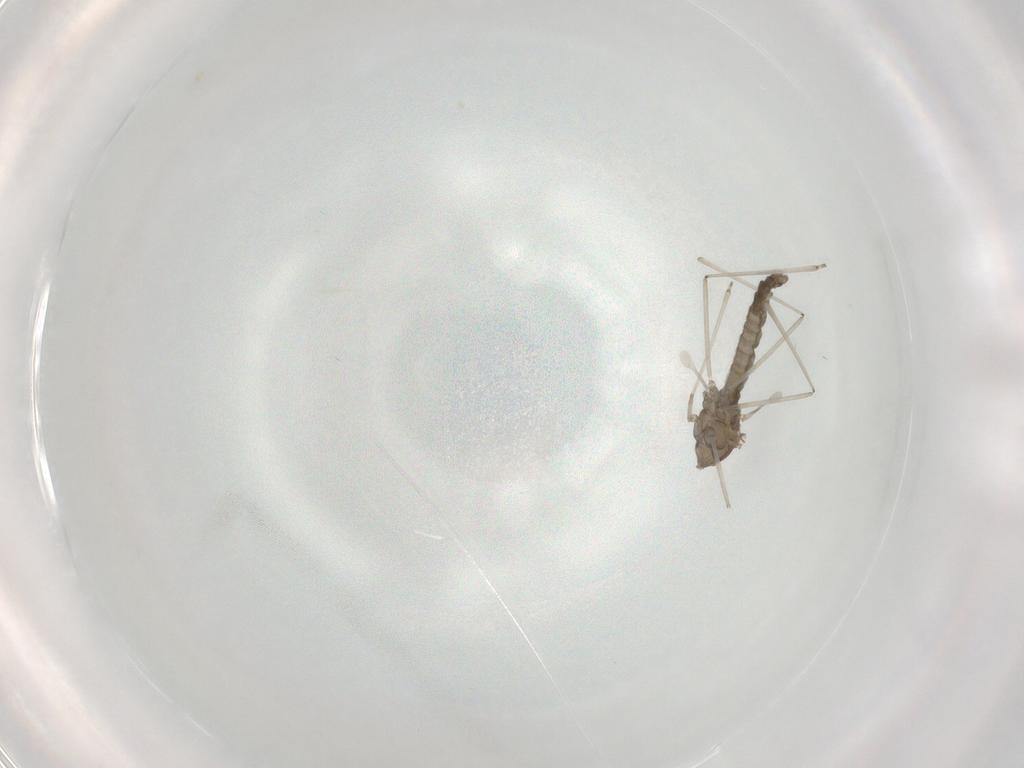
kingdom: Animalia
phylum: Arthropoda
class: Insecta
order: Diptera
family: Cecidomyiidae
